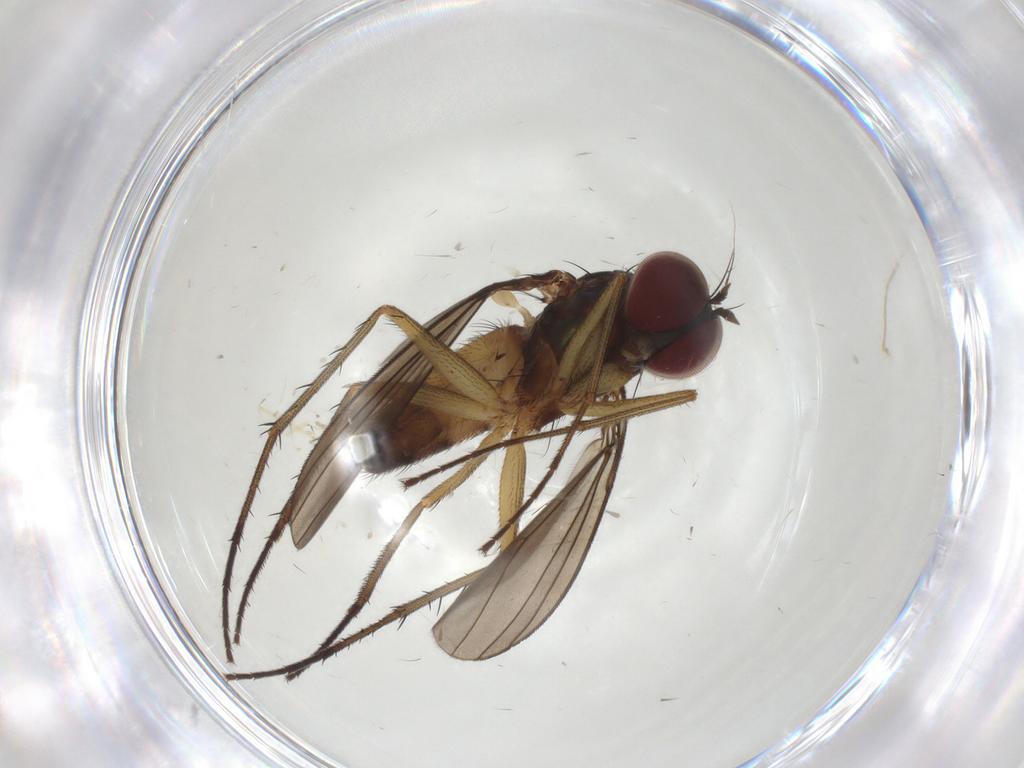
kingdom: Animalia
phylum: Arthropoda
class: Insecta
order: Diptera
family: Dolichopodidae
